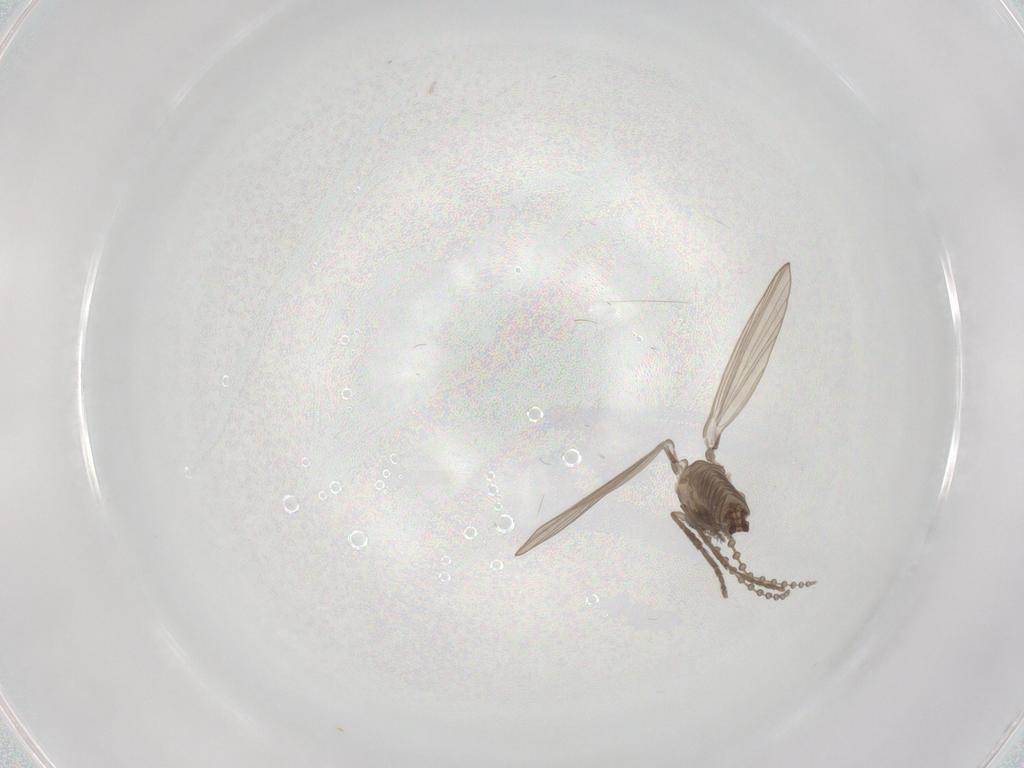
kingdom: Animalia
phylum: Arthropoda
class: Insecta
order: Diptera
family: Psychodidae
